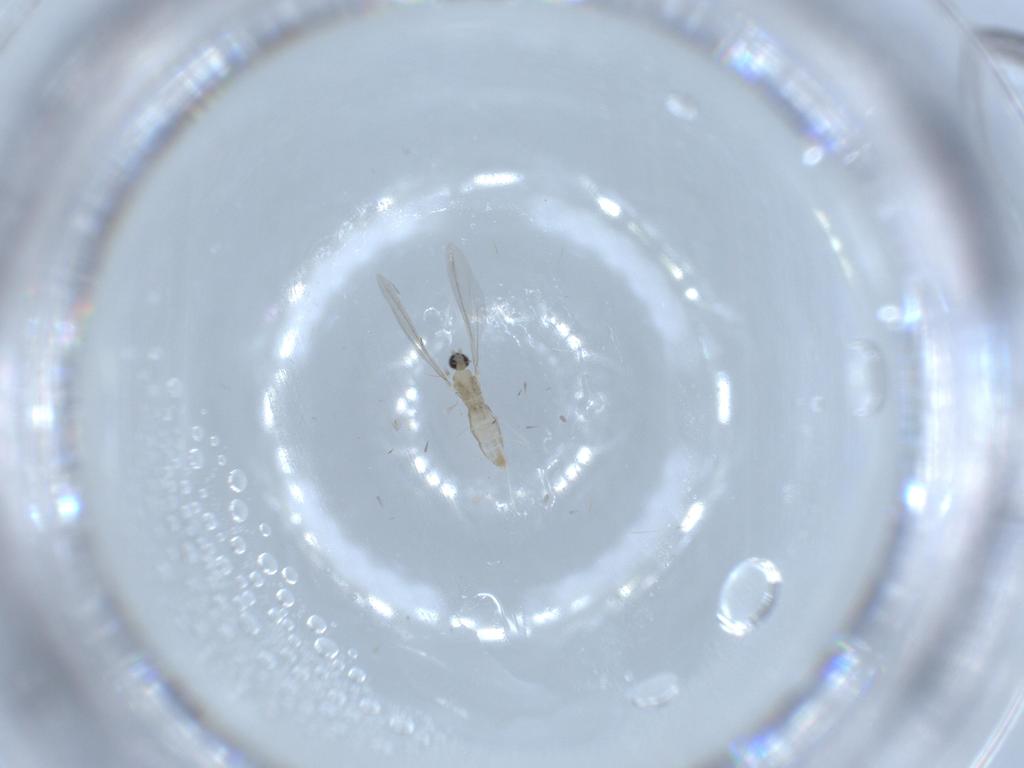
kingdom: Animalia
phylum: Arthropoda
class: Insecta
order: Diptera
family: Cecidomyiidae
